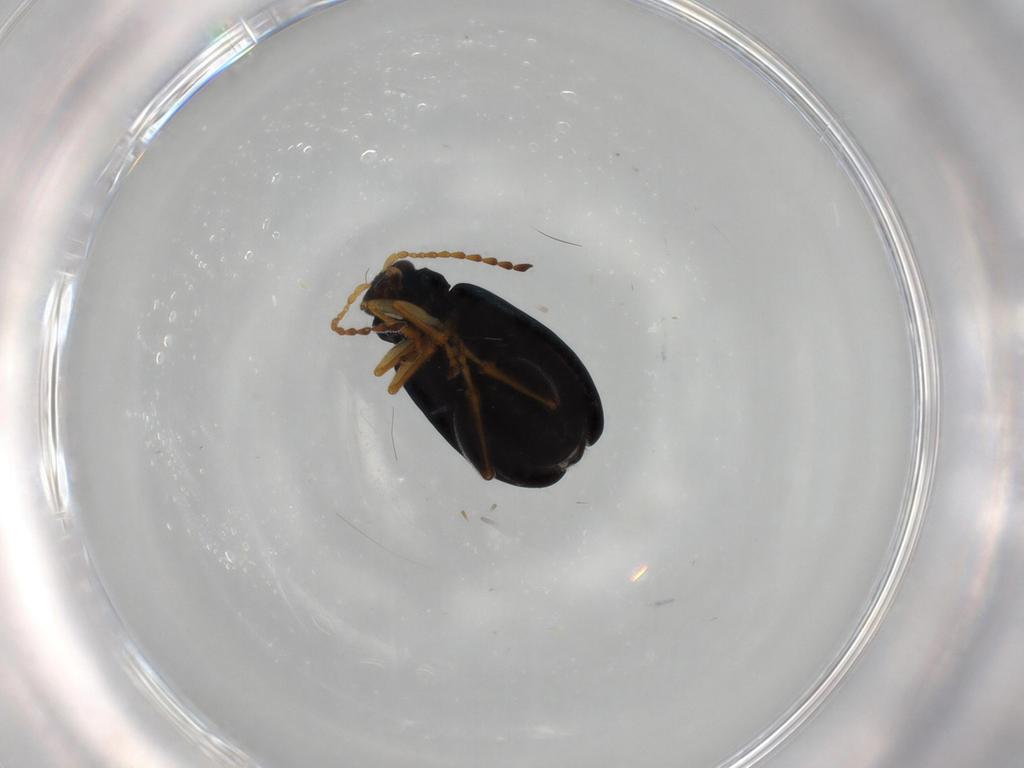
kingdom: Animalia
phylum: Arthropoda
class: Insecta
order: Coleoptera
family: Chrysomelidae
